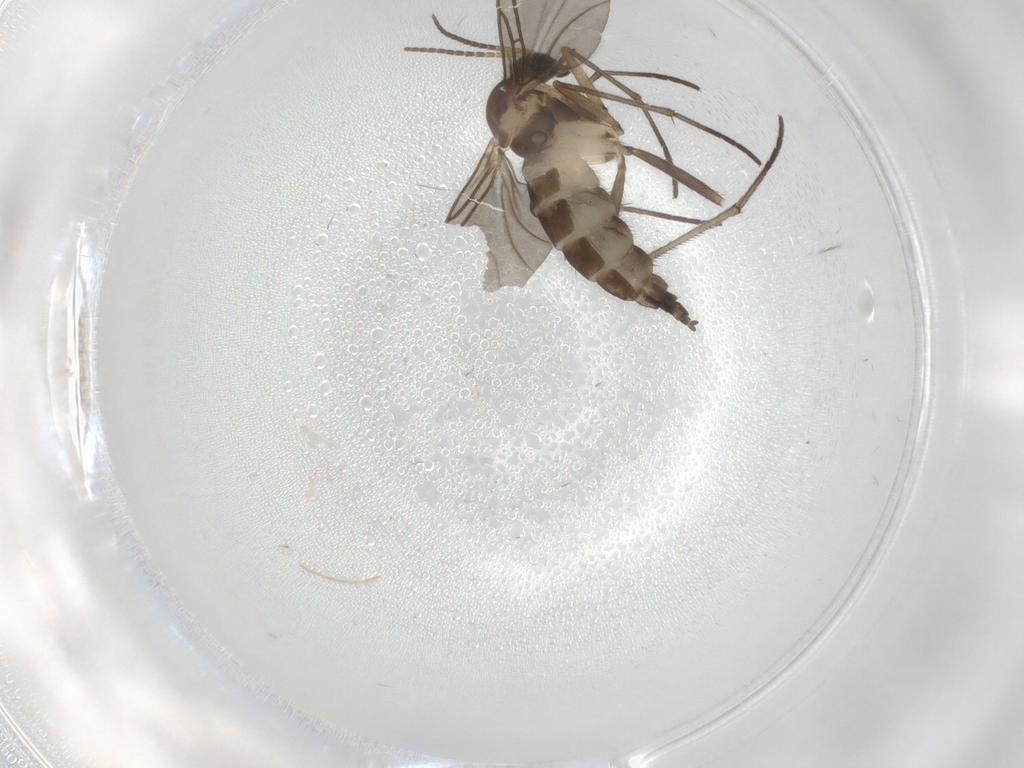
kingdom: Animalia
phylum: Arthropoda
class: Insecta
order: Diptera
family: Phoridae
